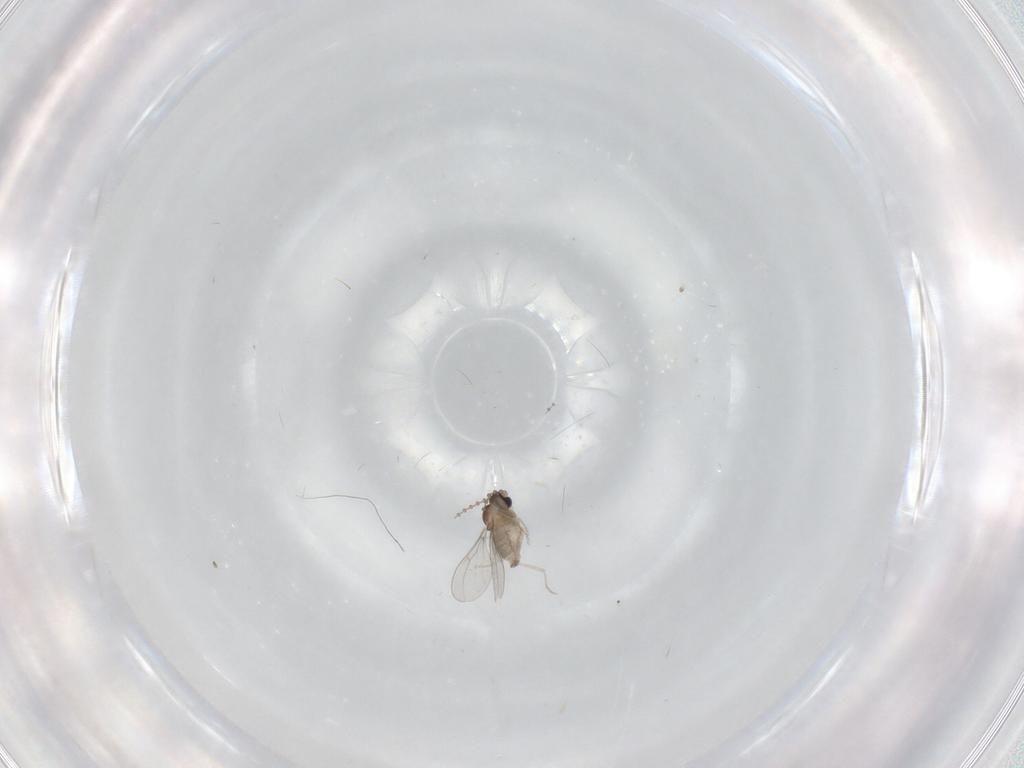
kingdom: Animalia
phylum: Arthropoda
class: Insecta
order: Diptera
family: Cecidomyiidae
